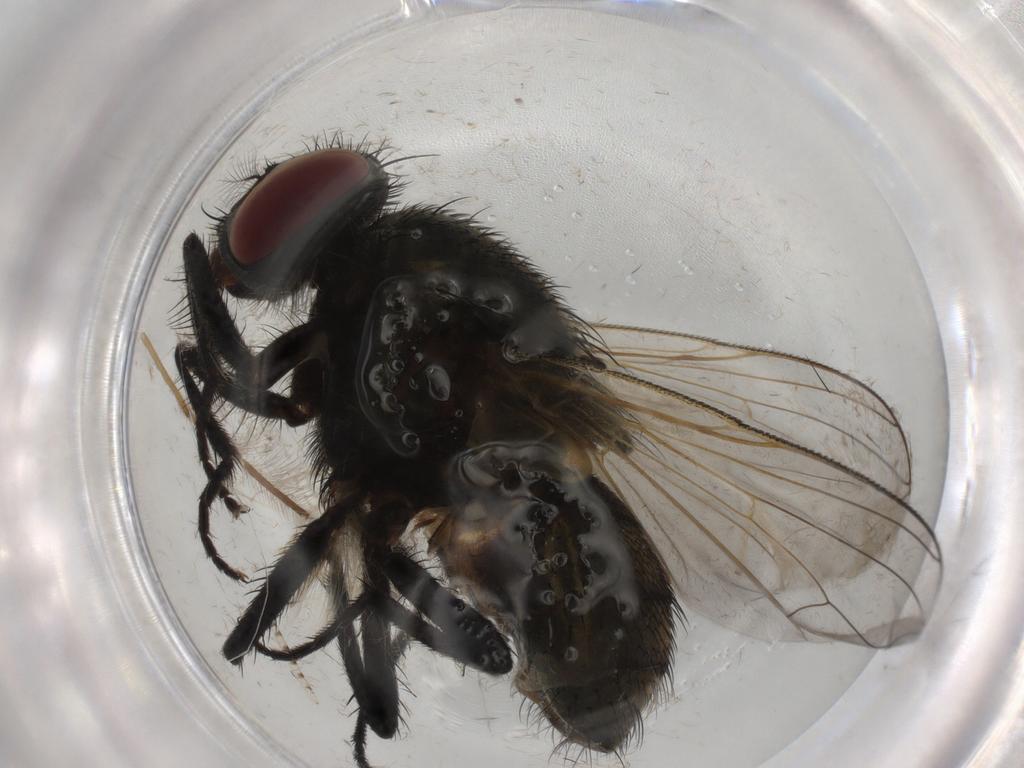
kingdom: Animalia
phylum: Arthropoda
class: Insecta
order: Diptera
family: Muscidae
